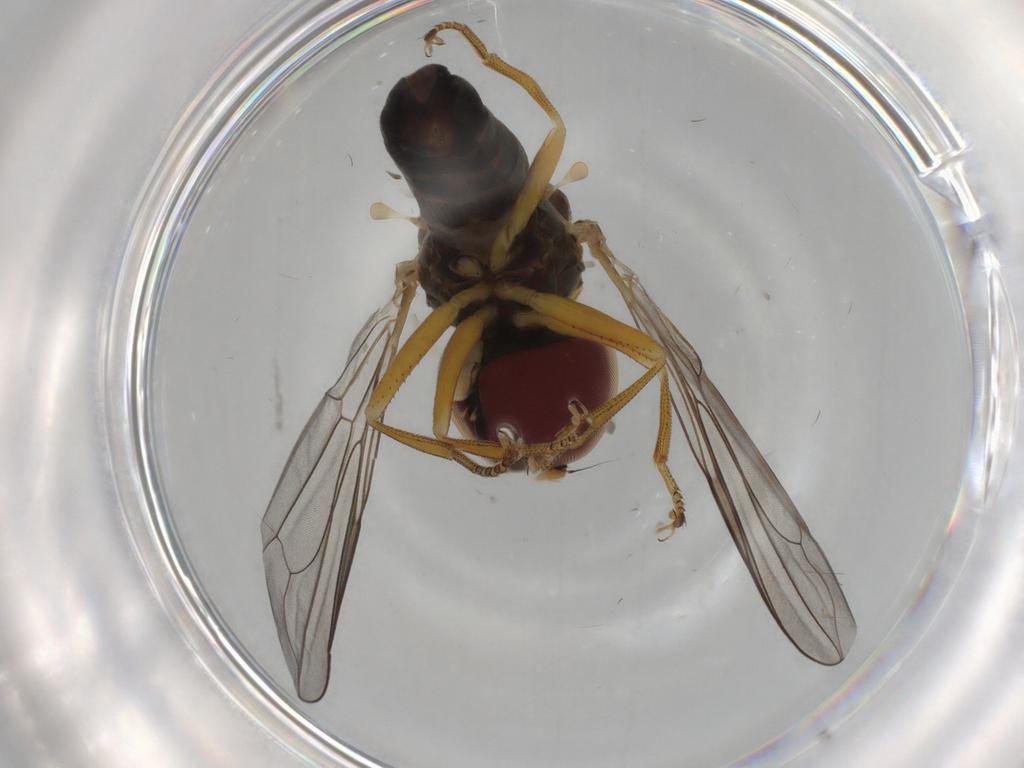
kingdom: Animalia
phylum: Arthropoda
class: Insecta
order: Diptera
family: Pipunculidae
